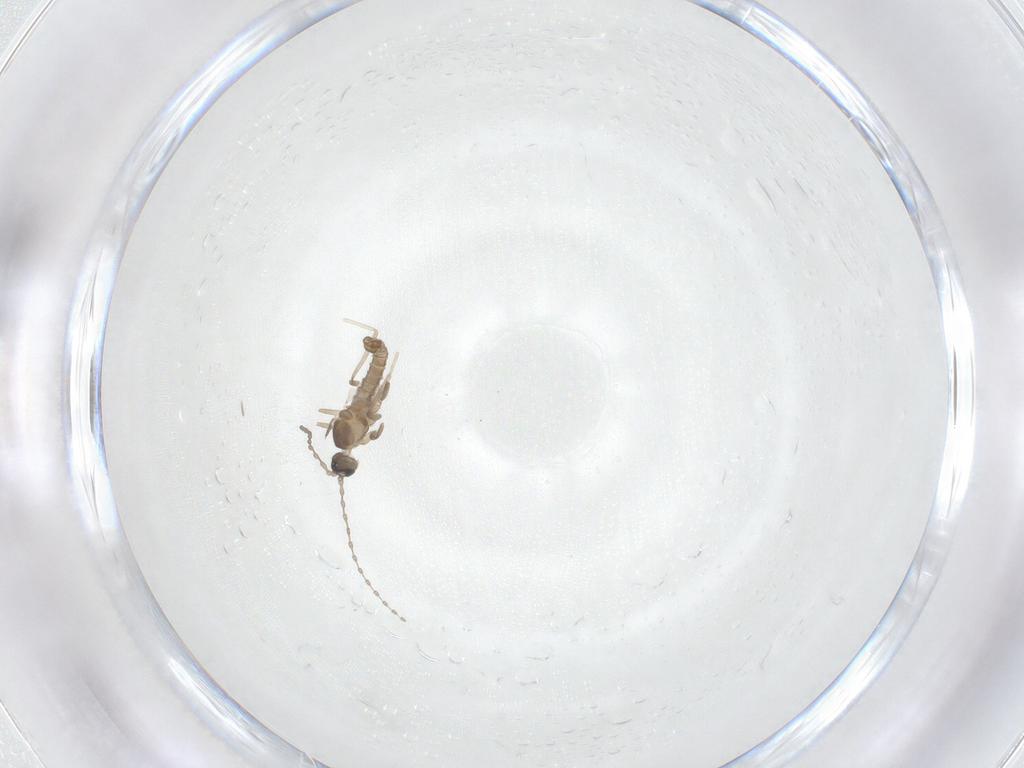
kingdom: Animalia
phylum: Arthropoda
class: Insecta
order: Diptera
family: Cecidomyiidae
